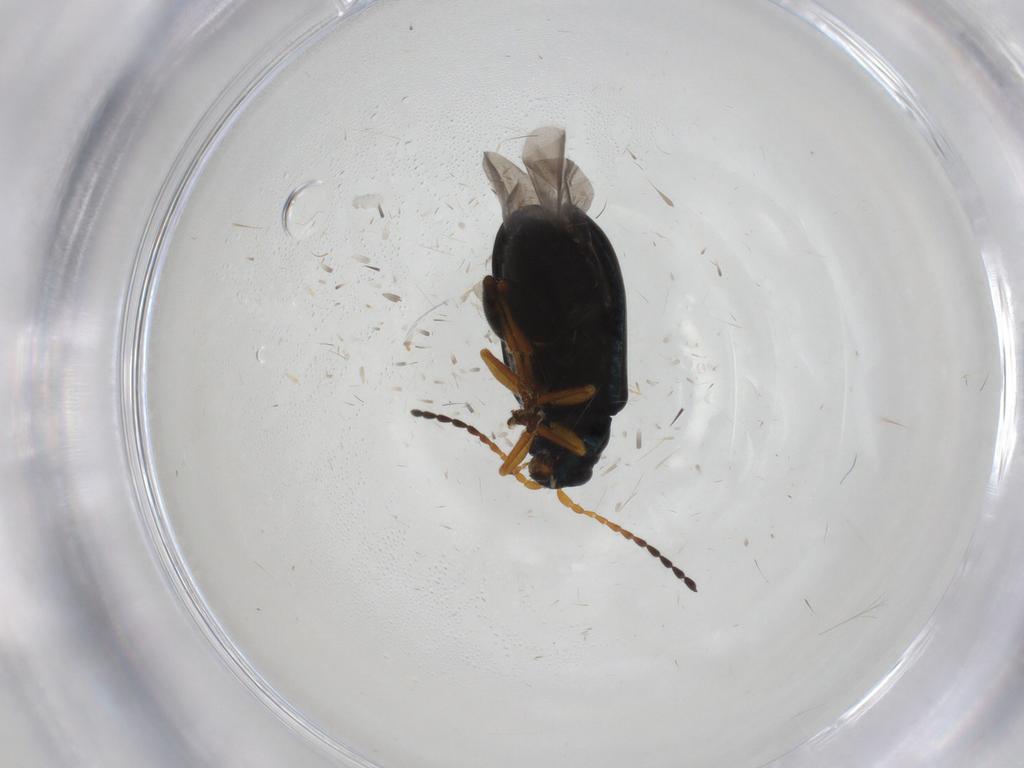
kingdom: Animalia
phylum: Arthropoda
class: Insecta
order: Coleoptera
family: Chrysomelidae
